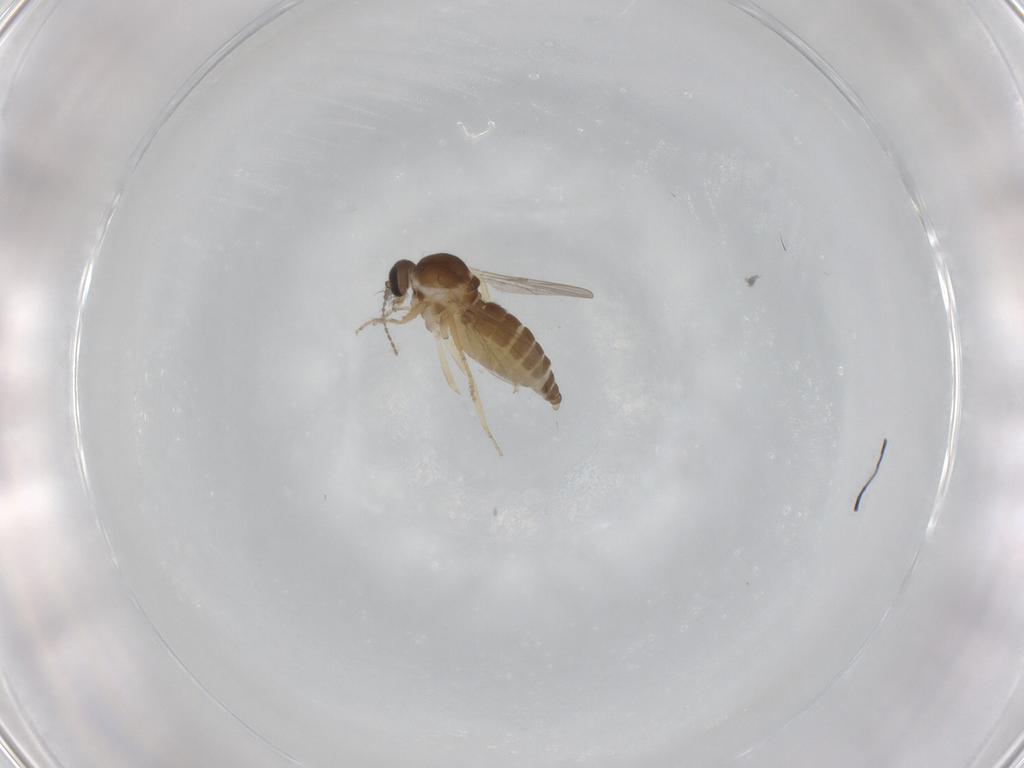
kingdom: Animalia
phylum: Arthropoda
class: Insecta
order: Diptera
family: Ceratopogonidae
